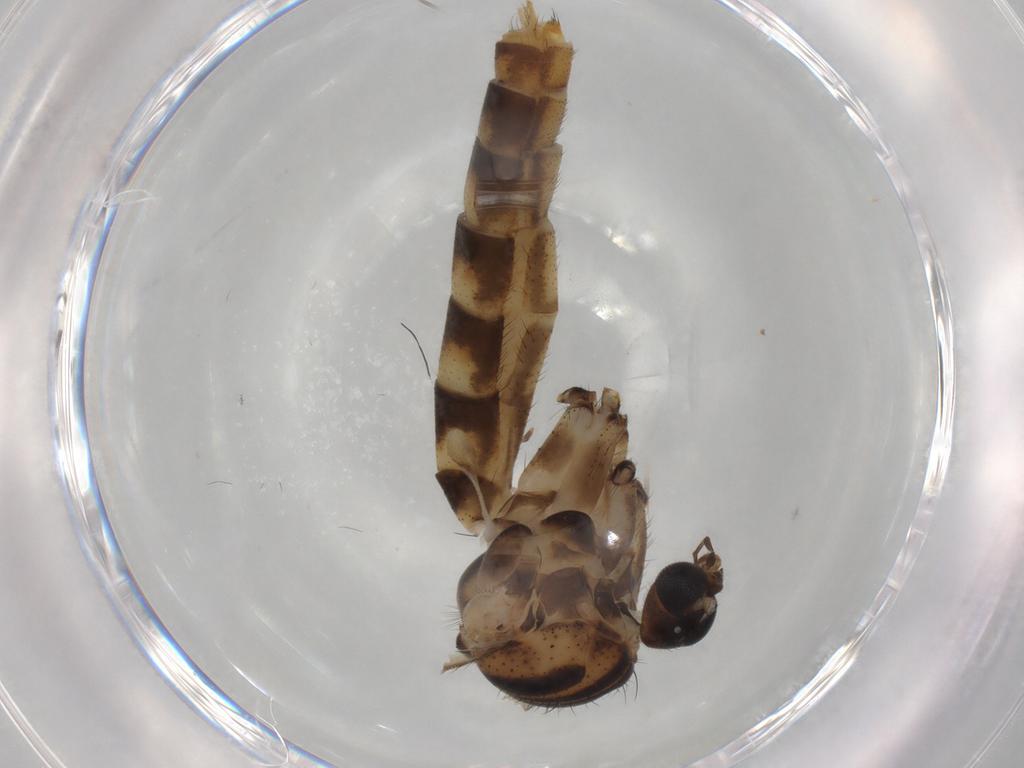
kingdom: Animalia
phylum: Arthropoda
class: Insecta
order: Diptera
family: Mycetophilidae
